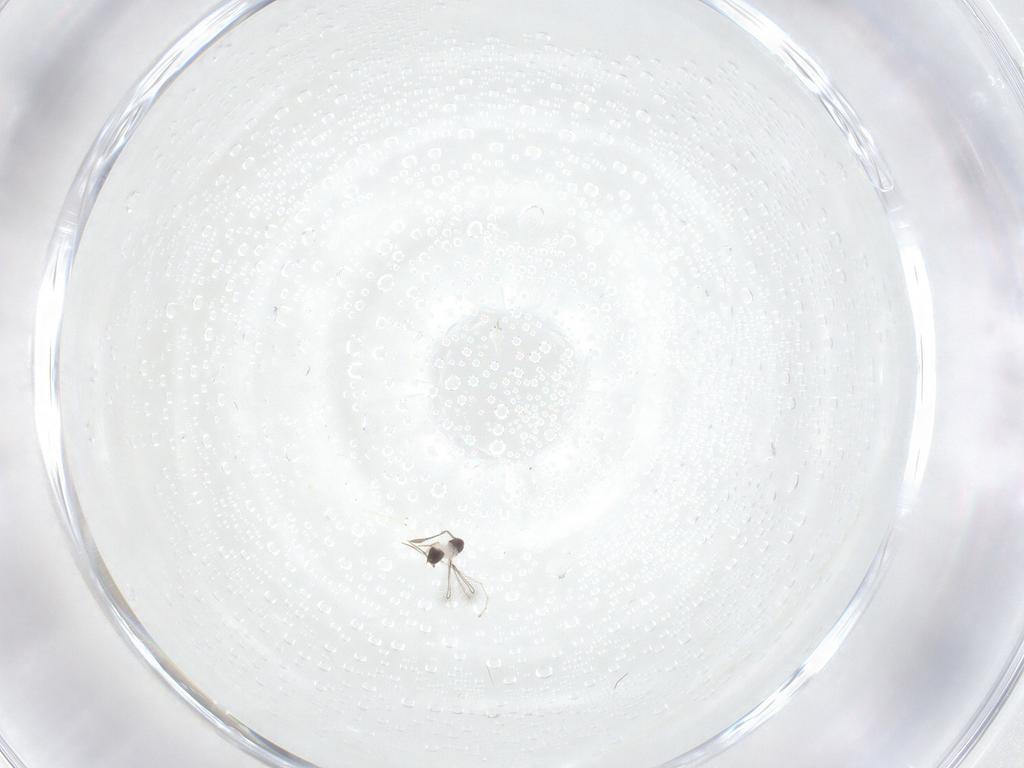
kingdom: Animalia
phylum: Arthropoda
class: Insecta
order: Hymenoptera
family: Mymaridae
